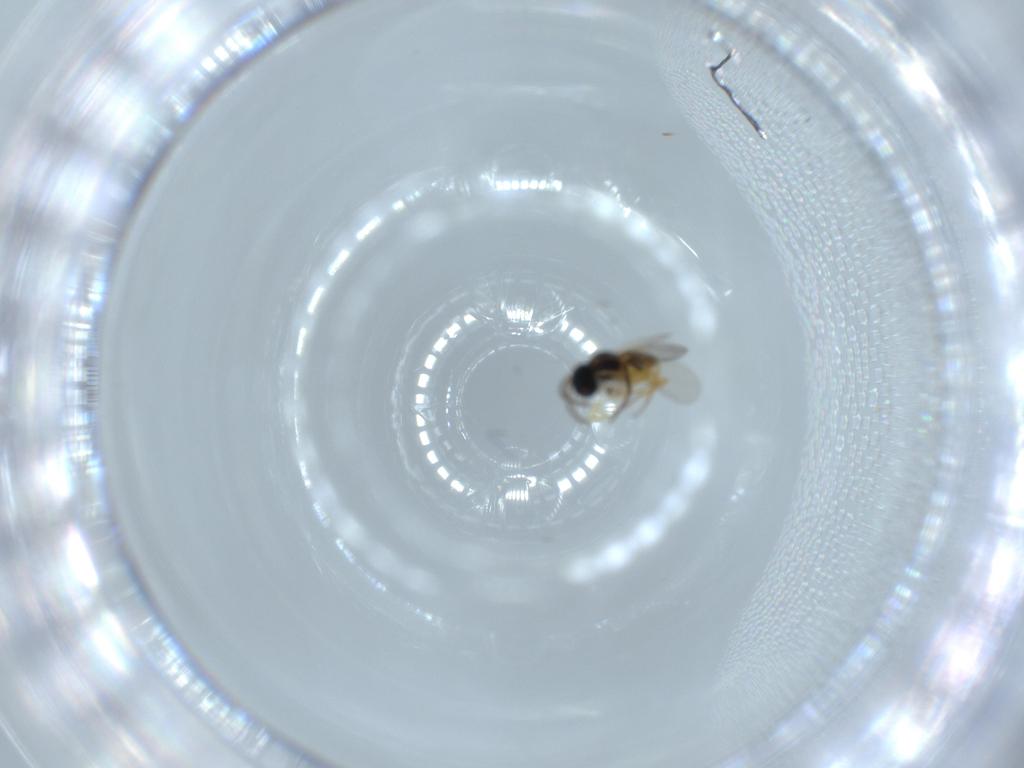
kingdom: Animalia
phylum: Arthropoda
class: Insecta
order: Hymenoptera
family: Encyrtidae
